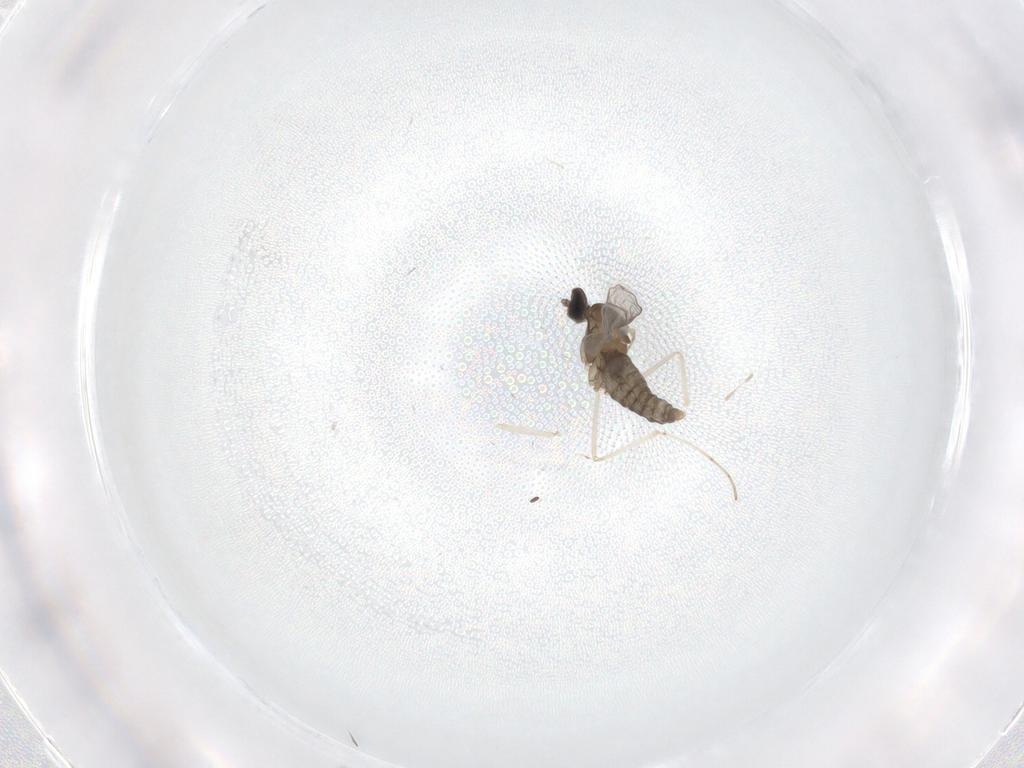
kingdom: Animalia
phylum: Arthropoda
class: Insecta
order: Diptera
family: Cecidomyiidae
